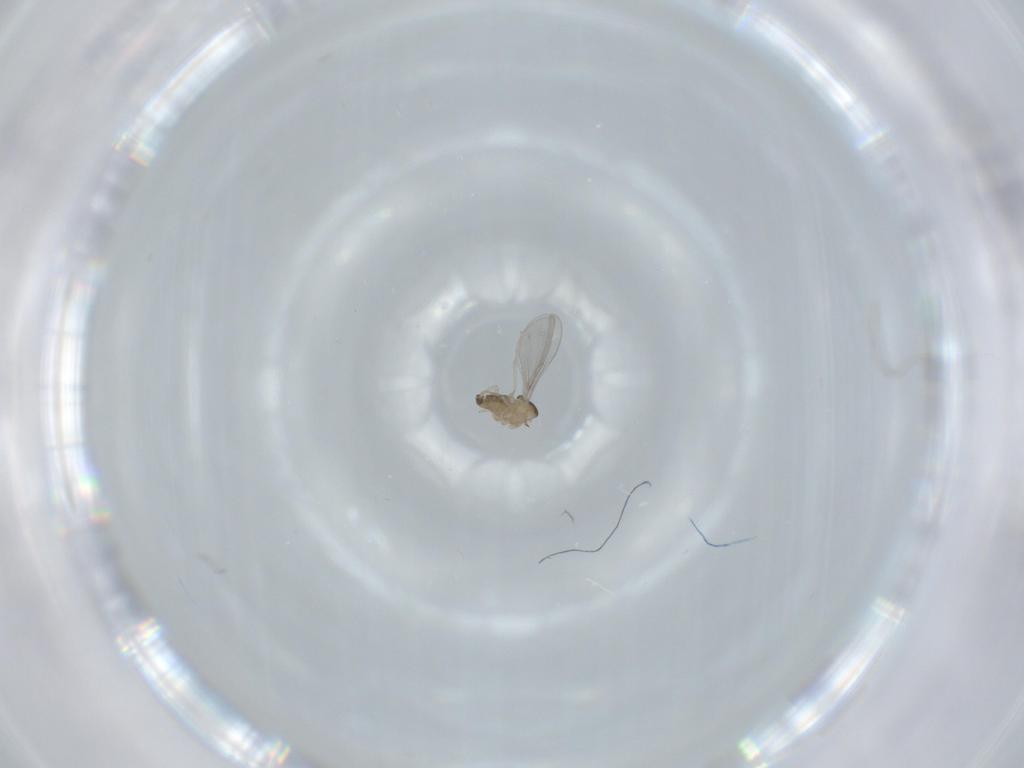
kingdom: Animalia
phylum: Arthropoda
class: Insecta
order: Diptera
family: Cecidomyiidae
